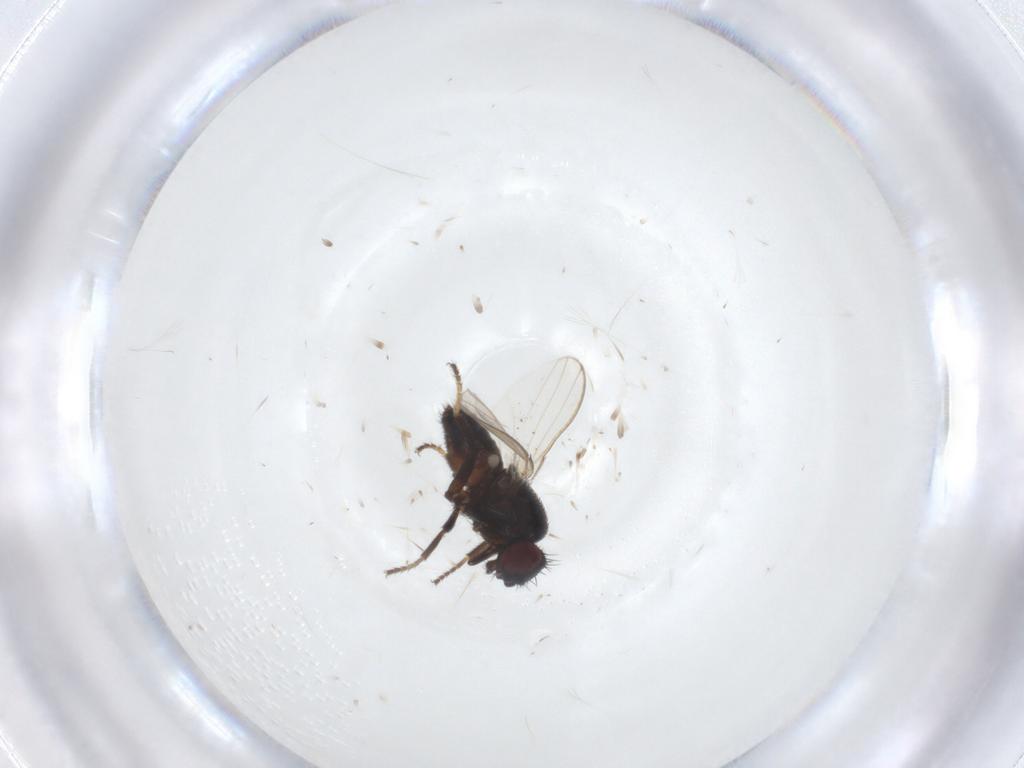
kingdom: Animalia
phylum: Arthropoda
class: Insecta
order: Diptera
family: Milichiidae
